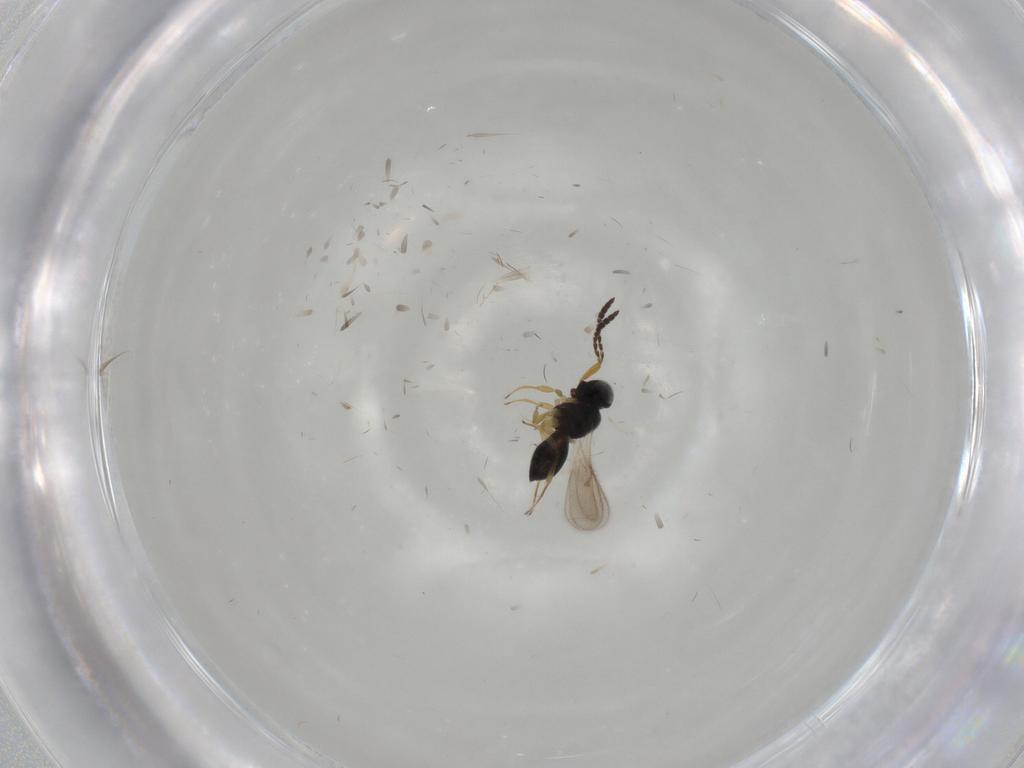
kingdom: Animalia
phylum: Arthropoda
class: Insecta
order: Hymenoptera
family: Scelionidae
